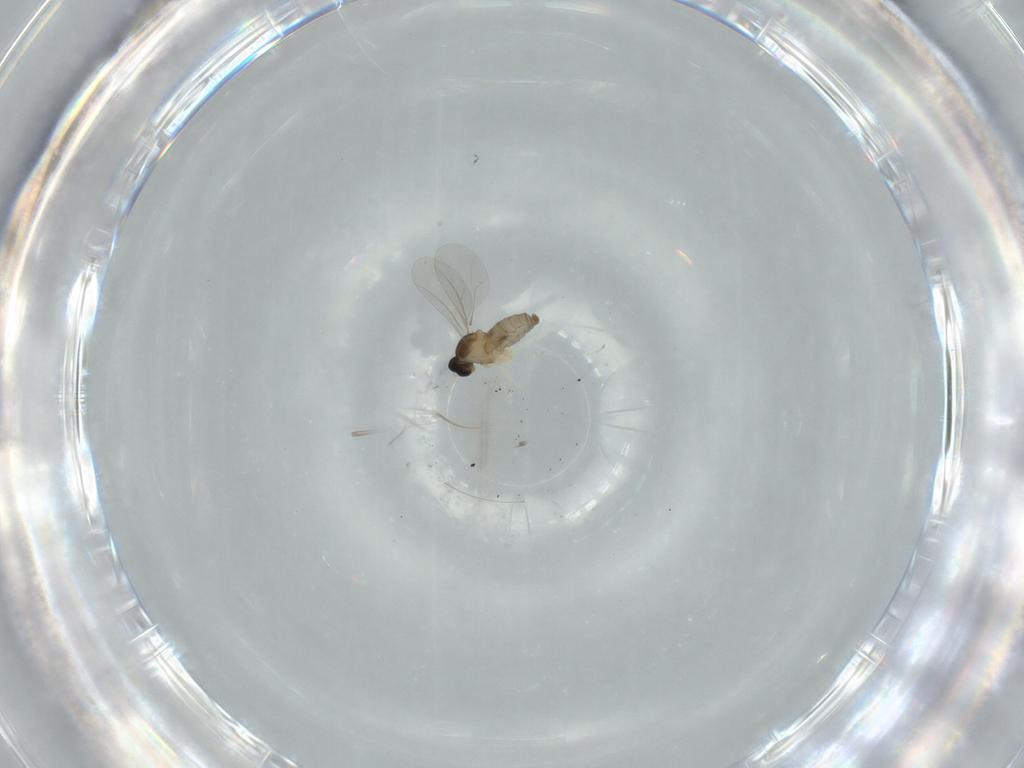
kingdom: Animalia
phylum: Arthropoda
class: Insecta
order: Diptera
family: Cecidomyiidae
